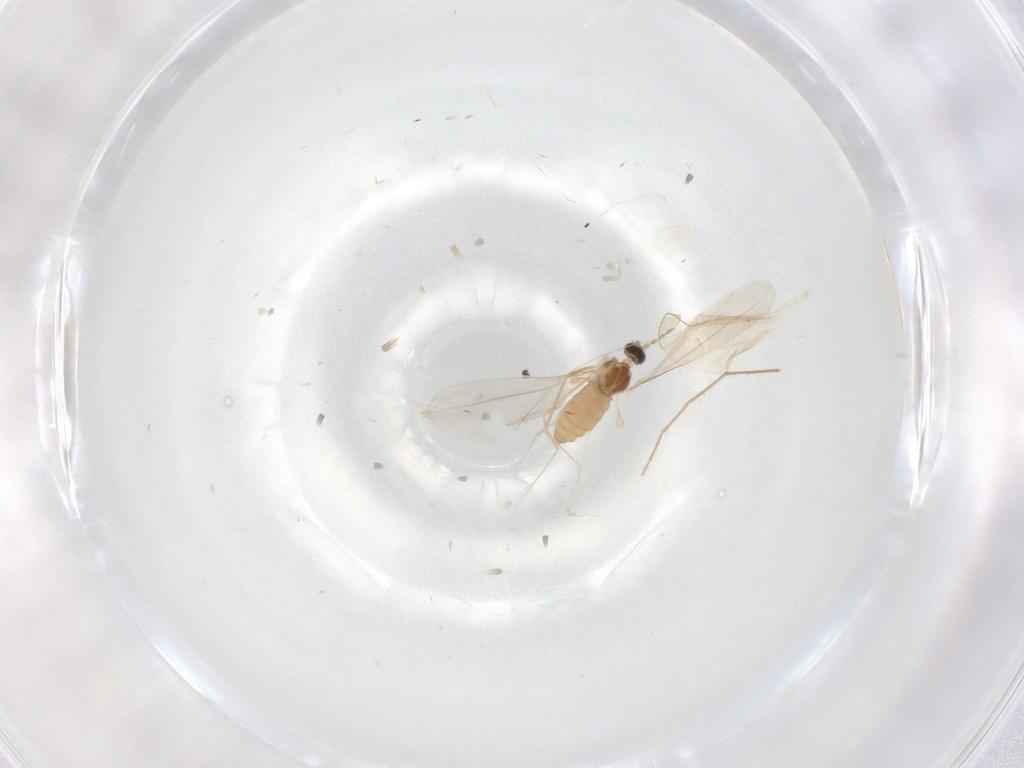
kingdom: Animalia
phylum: Arthropoda
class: Insecta
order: Diptera
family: Cecidomyiidae
